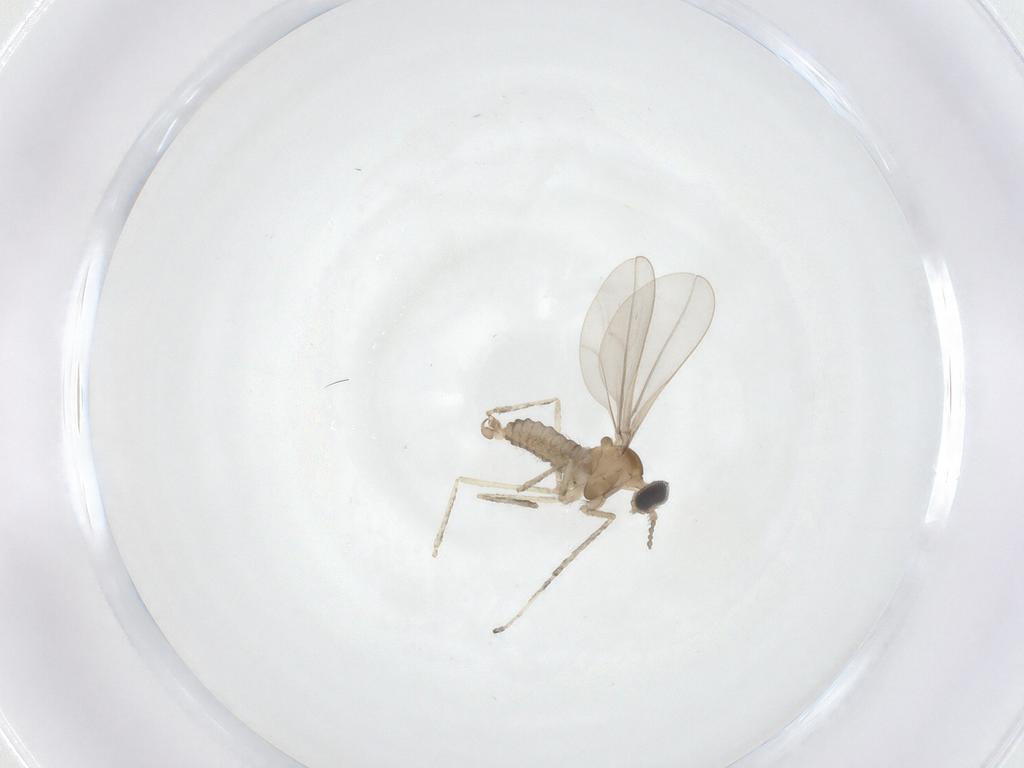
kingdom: Animalia
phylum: Arthropoda
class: Insecta
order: Diptera
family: Cecidomyiidae
